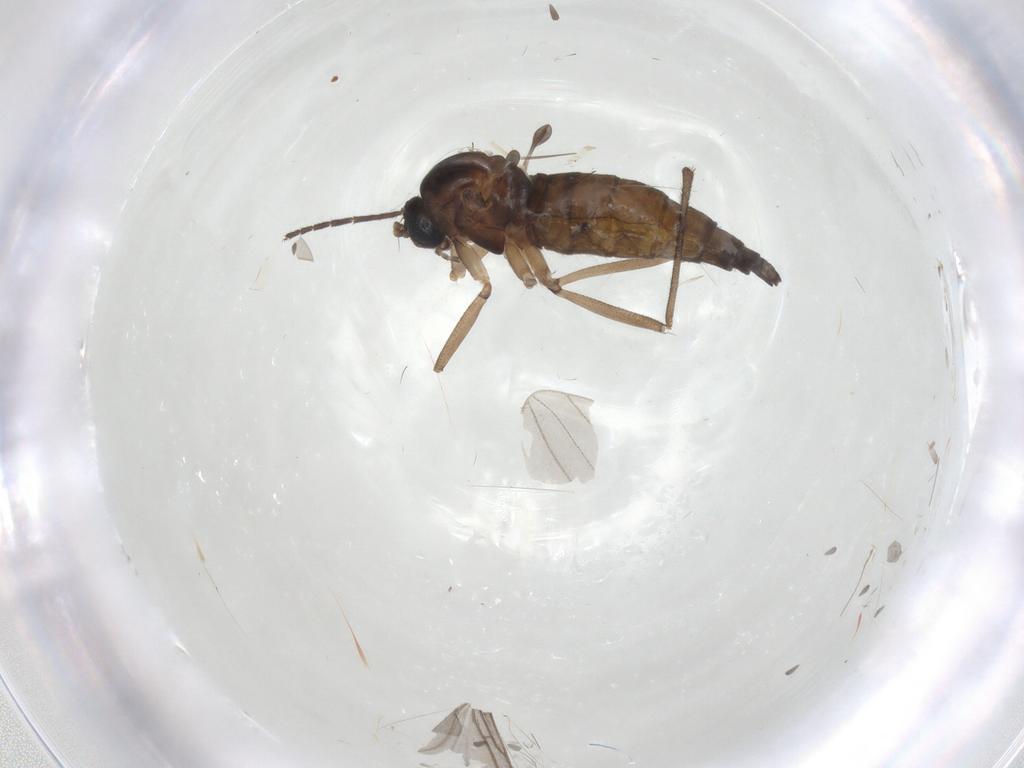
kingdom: Animalia
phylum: Arthropoda
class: Insecta
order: Diptera
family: Sciaridae
